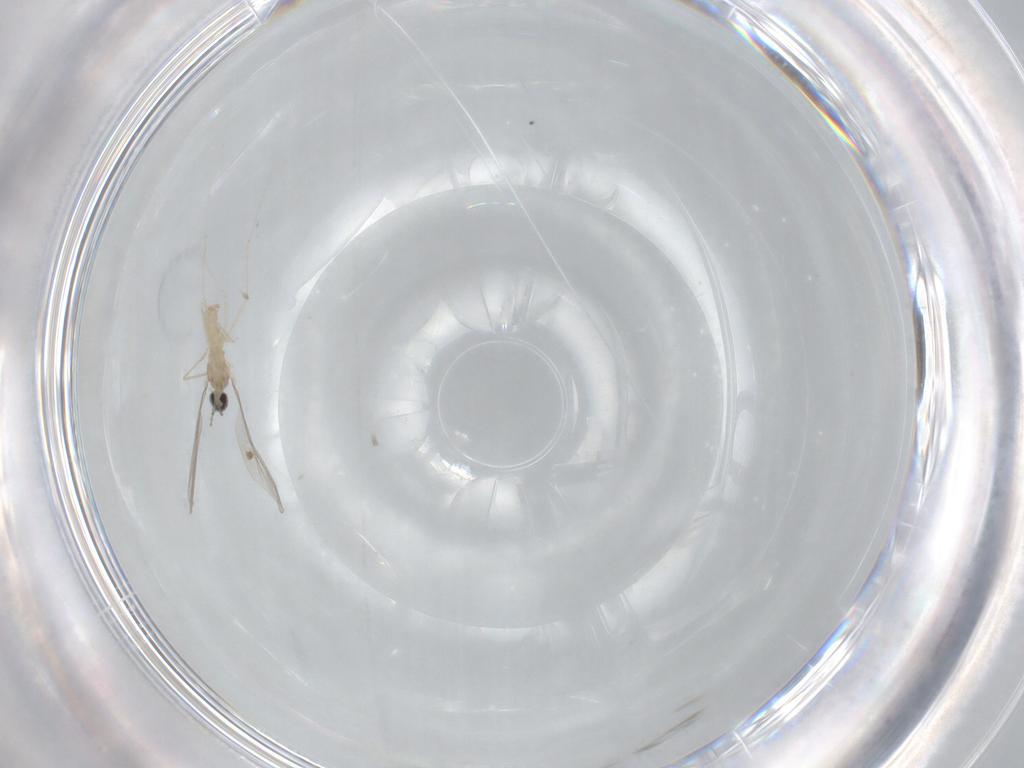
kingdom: Animalia
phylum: Arthropoda
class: Insecta
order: Diptera
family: Cecidomyiidae
